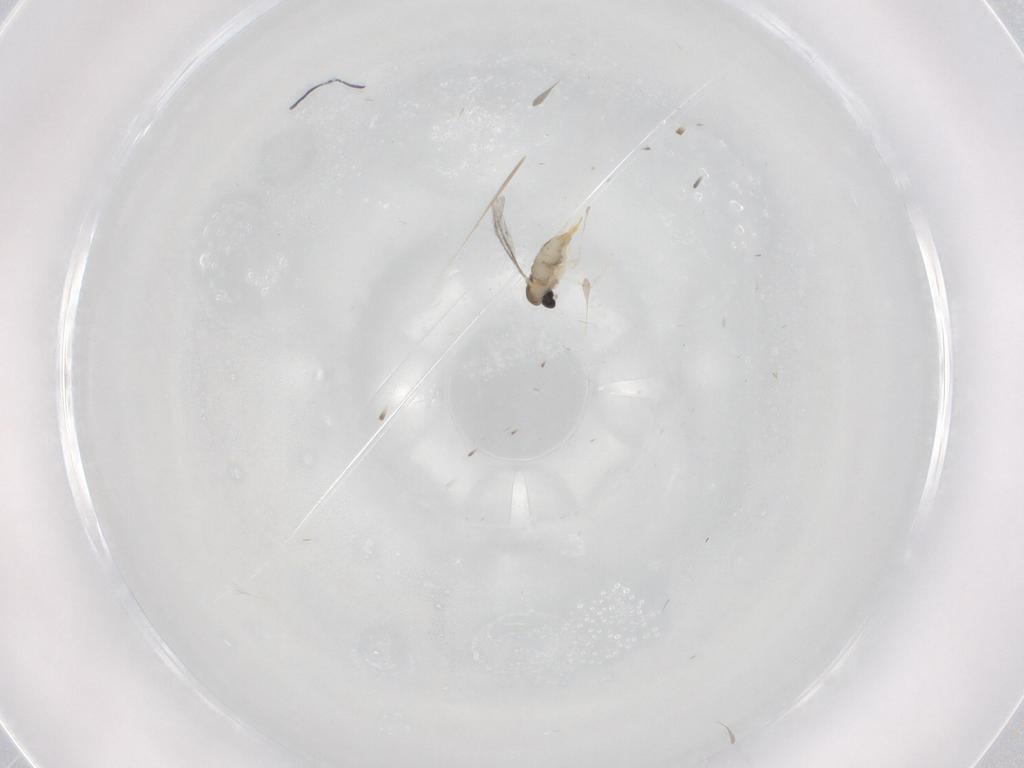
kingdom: Animalia
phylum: Arthropoda
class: Insecta
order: Diptera
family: Cecidomyiidae
